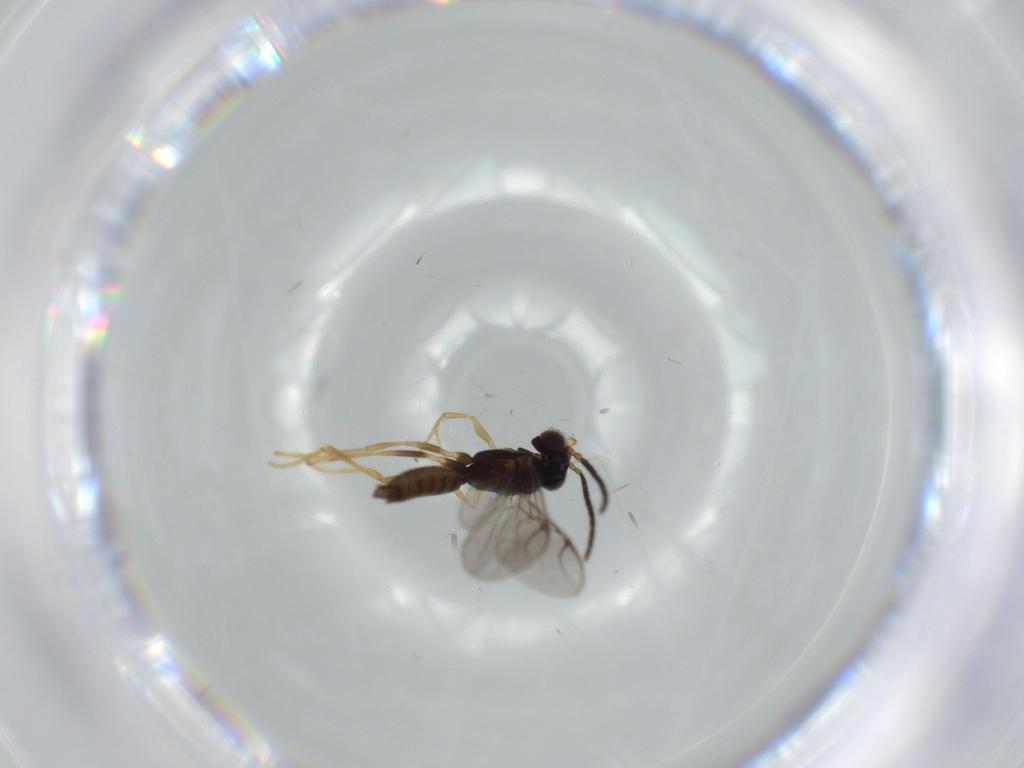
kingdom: Animalia
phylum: Arthropoda
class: Insecta
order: Hymenoptera
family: Dryinidae
